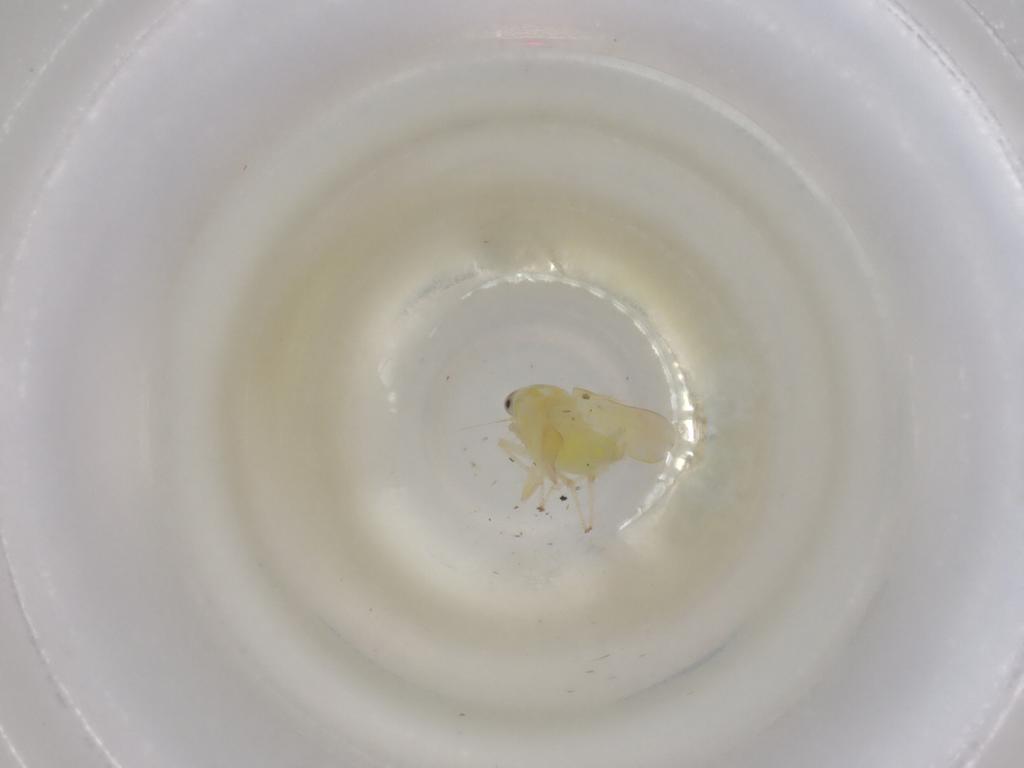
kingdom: Animalia
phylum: Arthropoda
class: Insecta
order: Hemiptera
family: Cicadellidae
